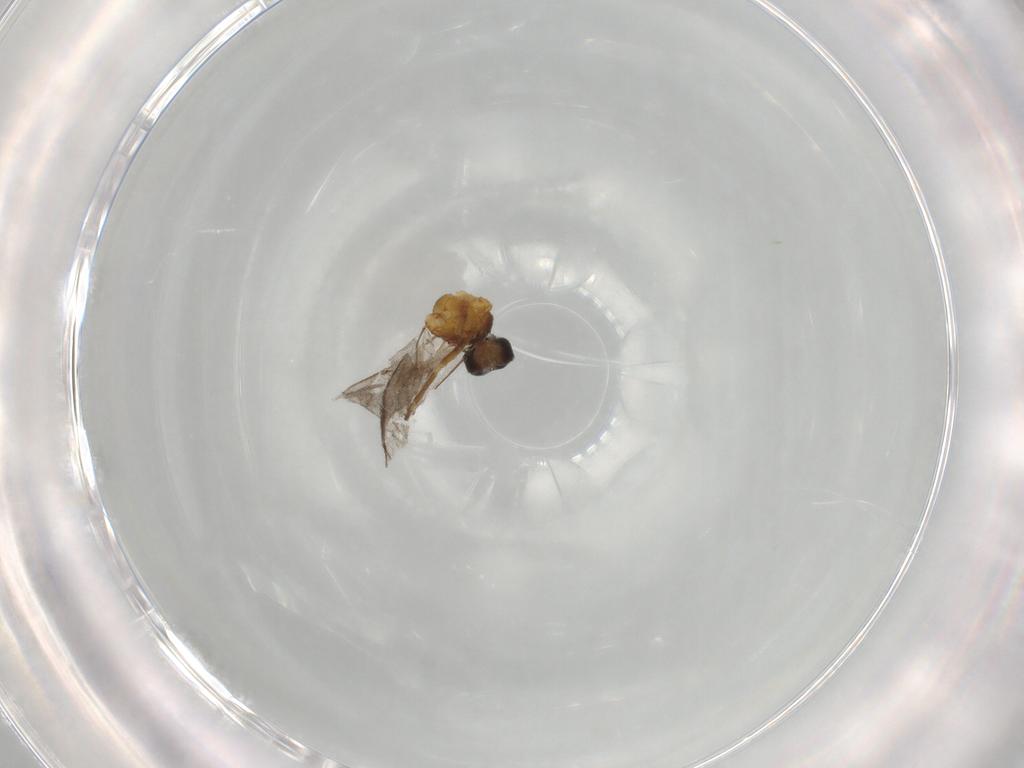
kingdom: Animalia
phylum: Arthropoda
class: Insecta
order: Hymenoptera
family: Braconidae
